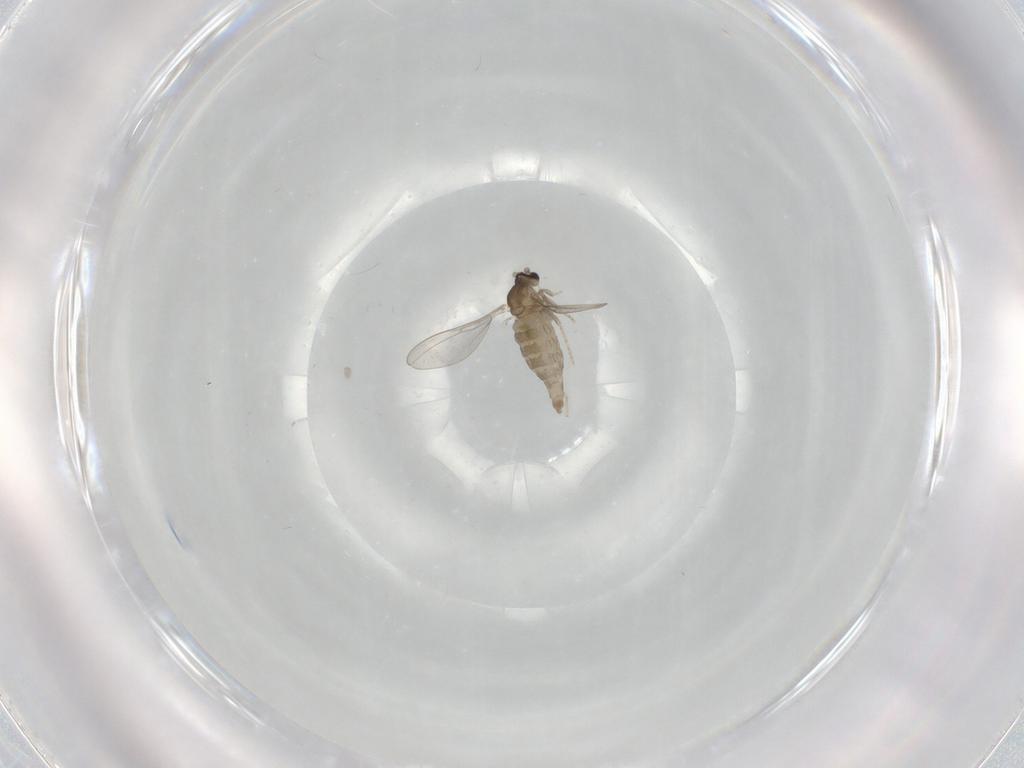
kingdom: Animalia
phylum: Arthropoda
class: Insecta
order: Diptera
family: Cecidomyiidae
